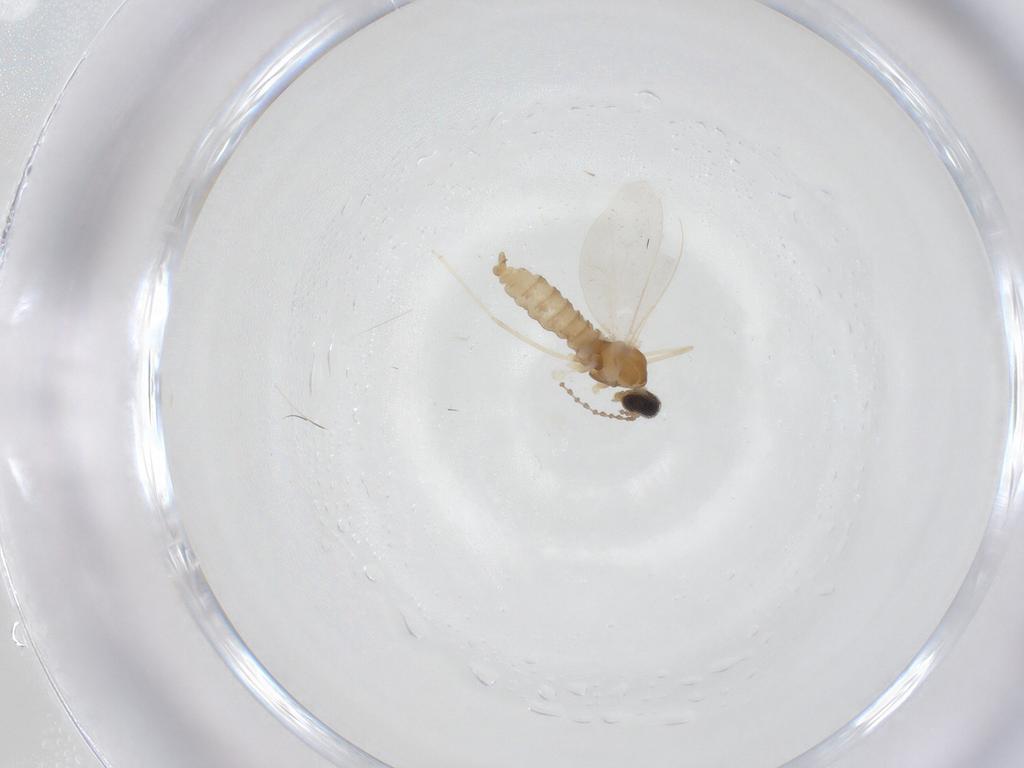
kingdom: Animalia
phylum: Arthropoda
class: Insecta
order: Diptera
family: Cecidomyiidae
